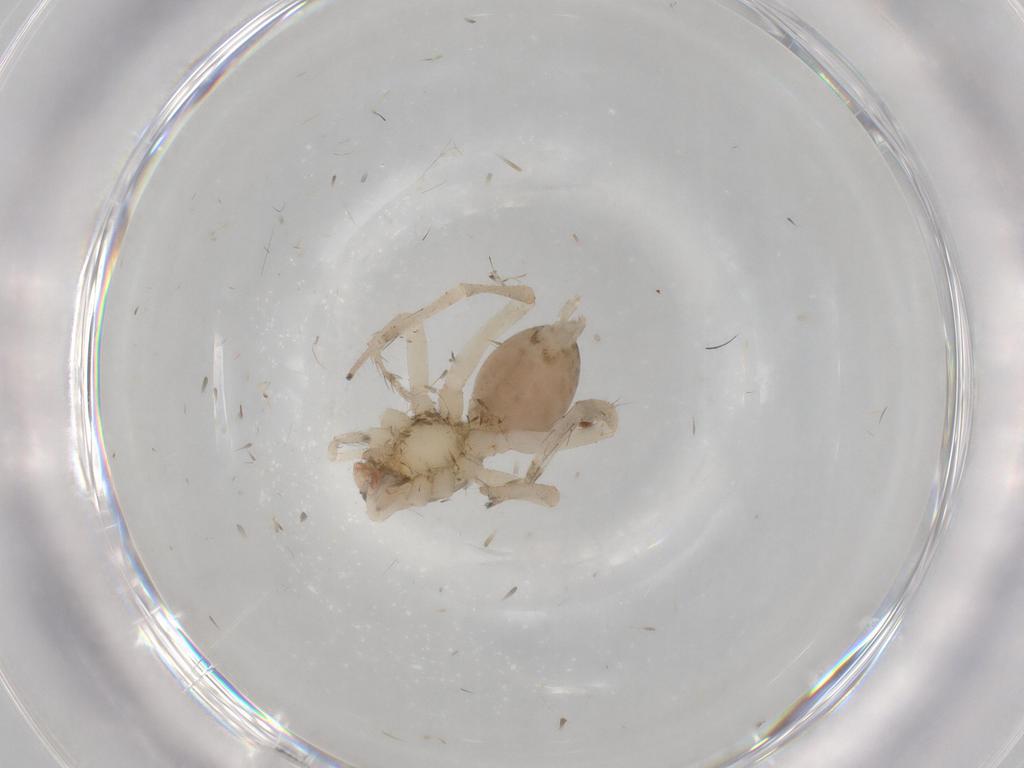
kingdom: Animalia
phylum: Arthropoda
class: Arachnida
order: Araneae
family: Anyphaenidae
